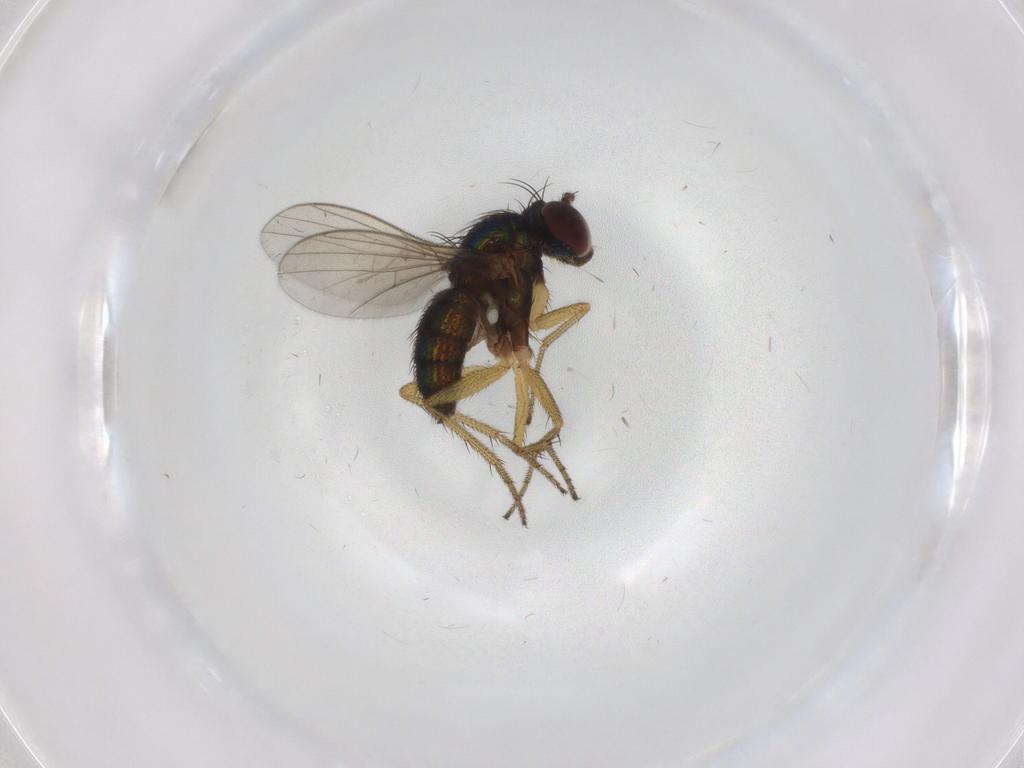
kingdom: Animalia
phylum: Arthropoda
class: Insecta
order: Diptera
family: Dolichopodidae
